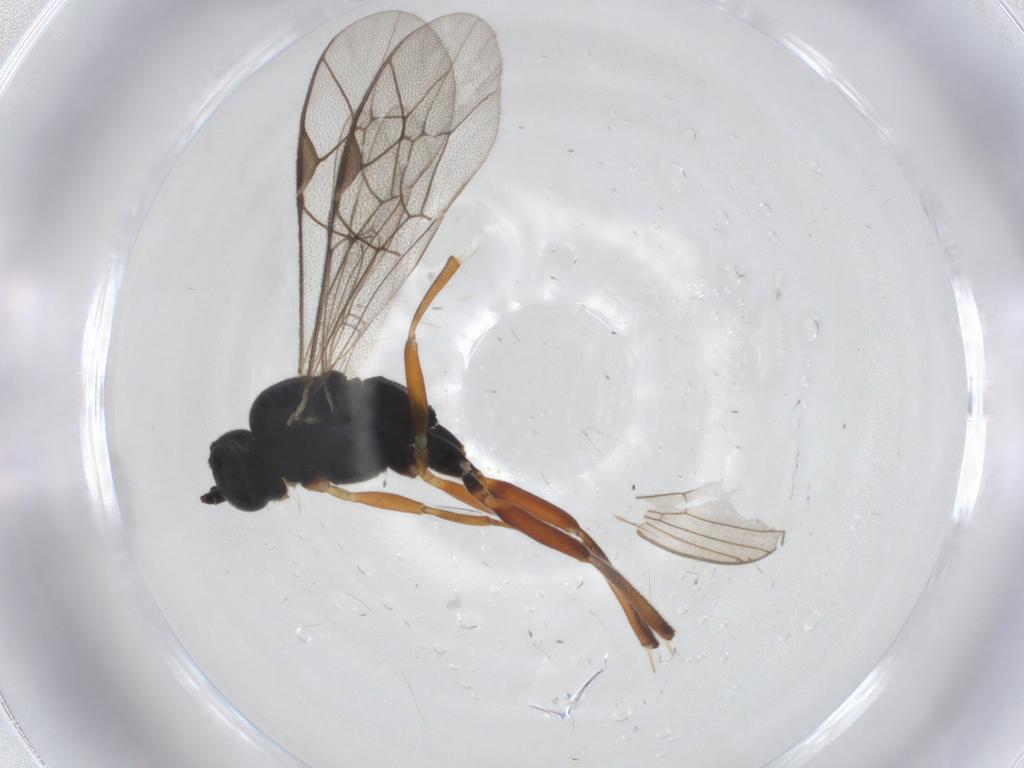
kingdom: Animalia
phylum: Arthropoda
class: Insecta
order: Hymenoptera
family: Ichneumonidae
